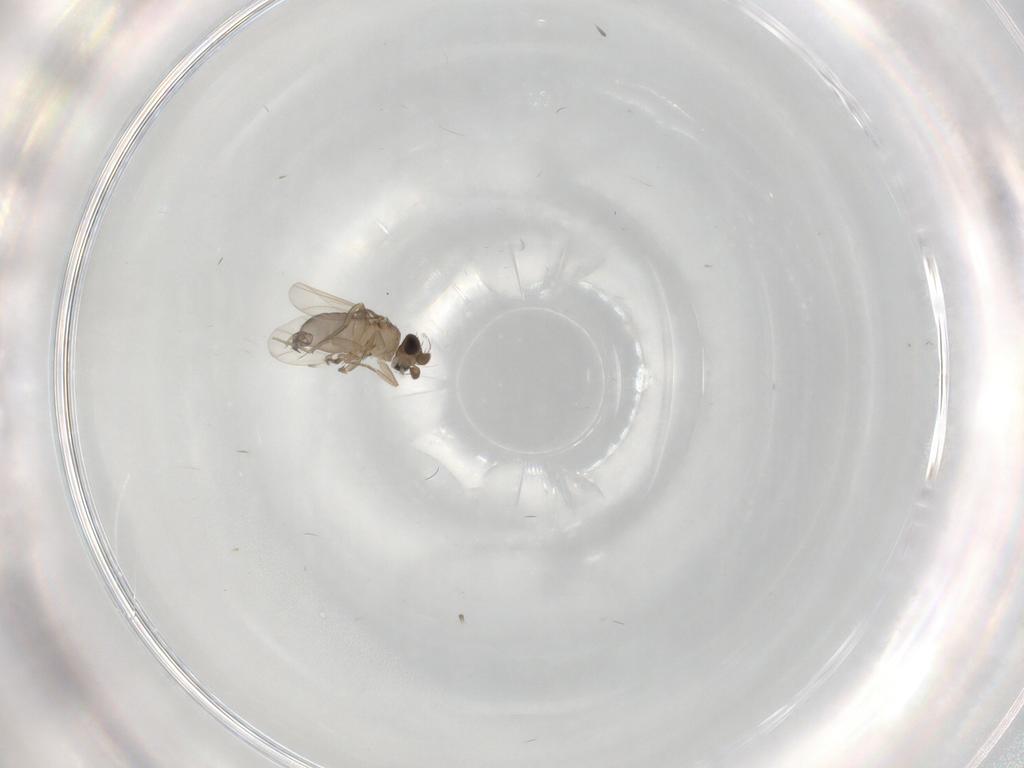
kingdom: Animalia
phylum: Arthropoda
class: Insecta
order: Diptera
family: Phoridae
